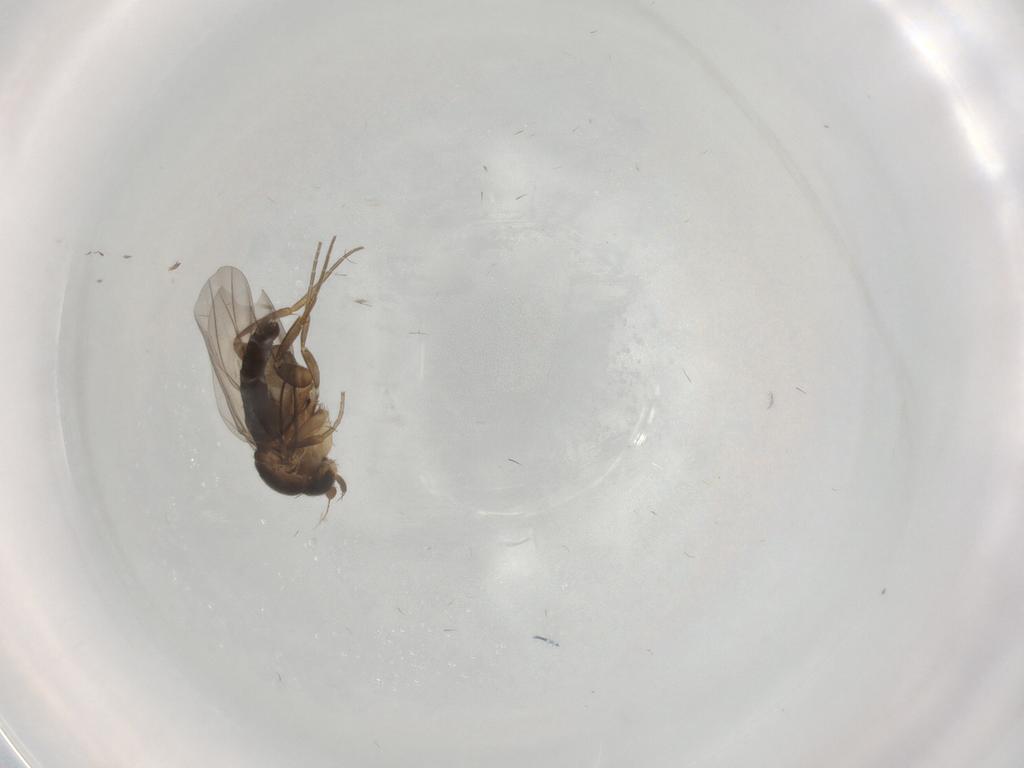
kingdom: Animalia
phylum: Arthropoda
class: Insecta
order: Diptera
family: Phoridae
